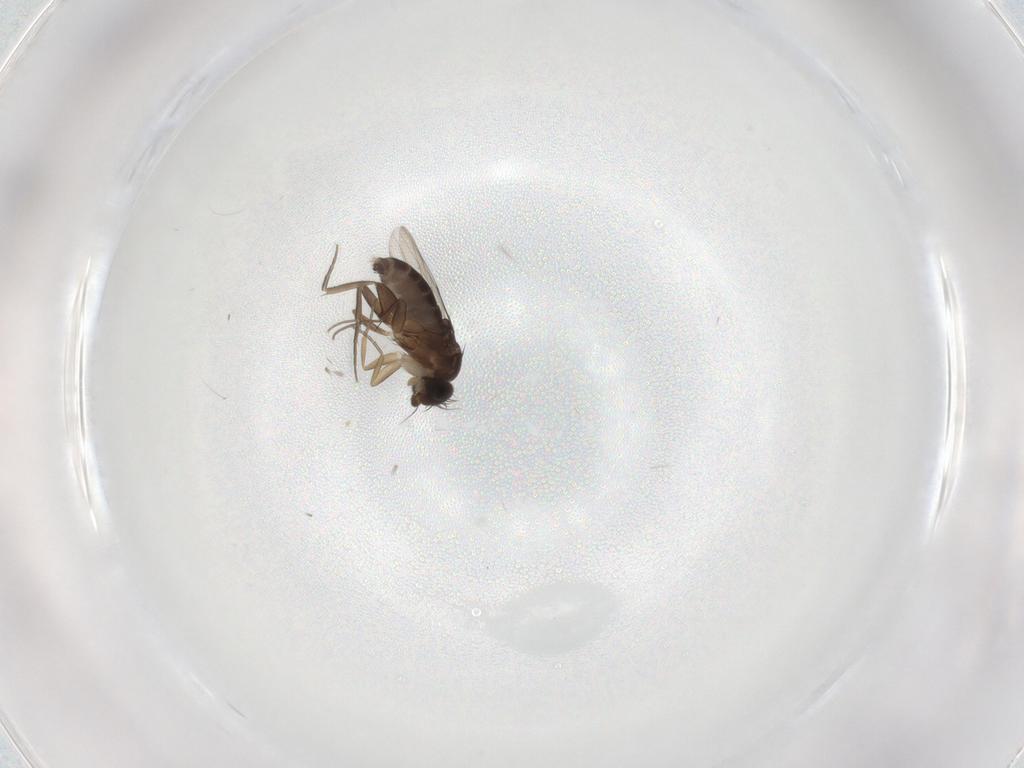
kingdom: Animalia
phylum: Arthropoda
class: Insecta
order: Diptera
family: Phoridae
